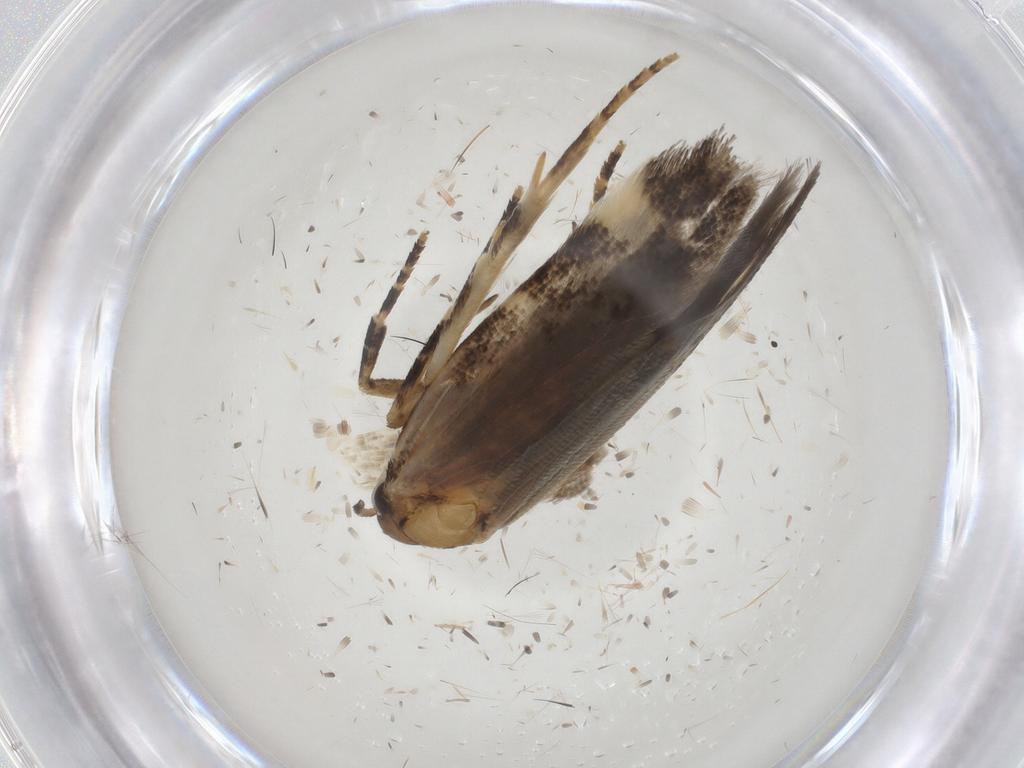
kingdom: Animalia
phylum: Arthropoda
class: Insecta
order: Lepidoptera
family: Gelechiidae
